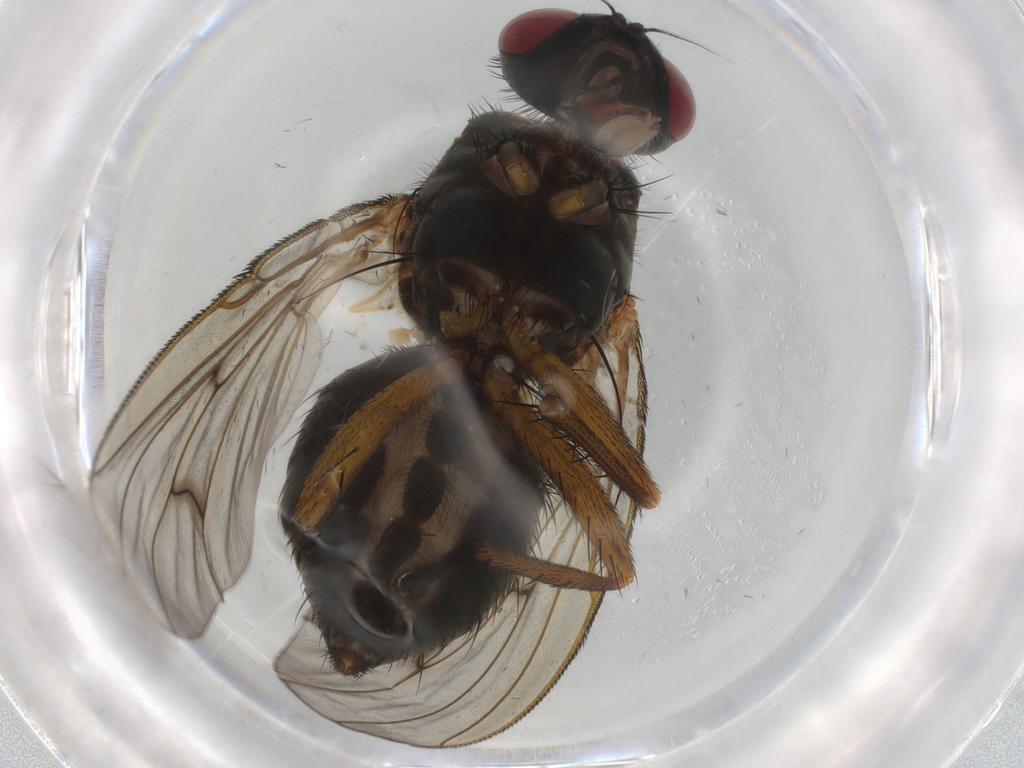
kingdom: Animalia
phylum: Arthropoda
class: Insecta
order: Diptera
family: Muscidae
